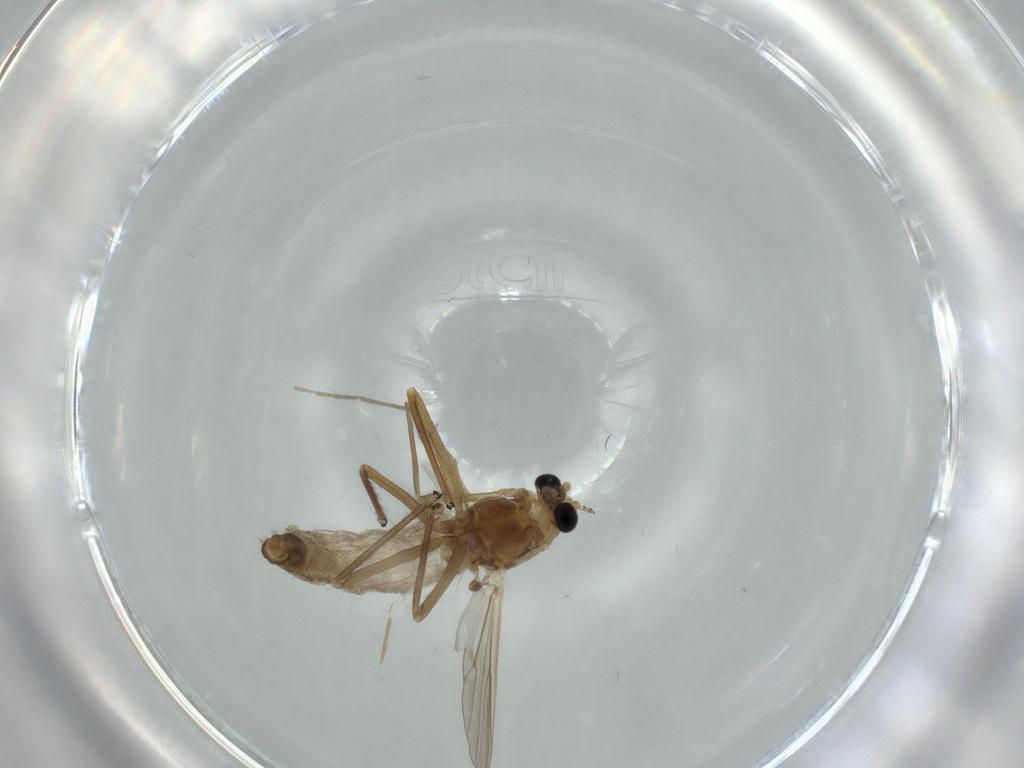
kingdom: Animalia
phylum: Arthropoda
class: Insecta
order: Diptera
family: Chironomidae
